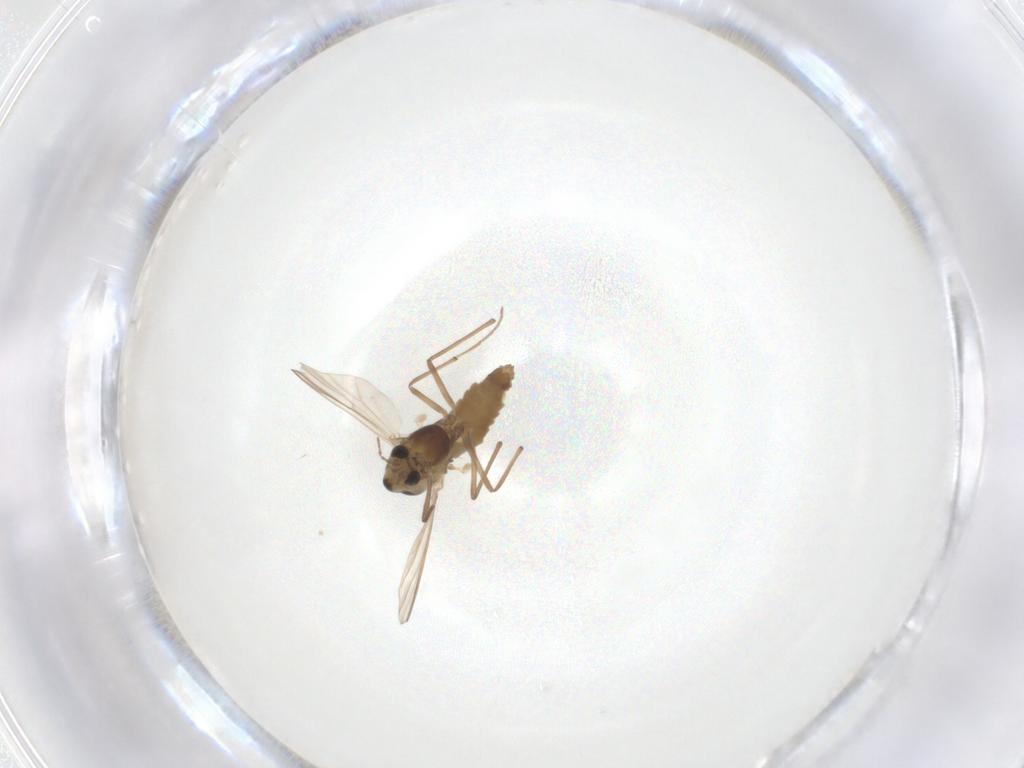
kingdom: Animalia
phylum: Arthropoda
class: Insecta
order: Diptera
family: Chironomidae
